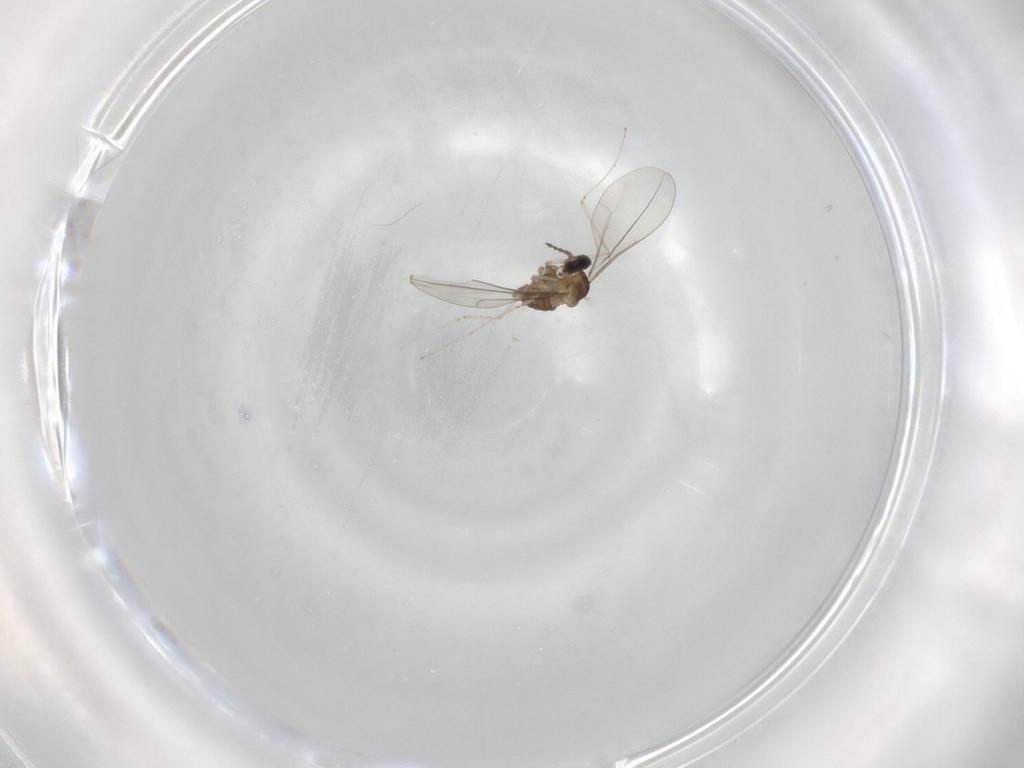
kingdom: Animalia
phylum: Arthropoda
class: Insecta
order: Diptera
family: Cecidomyiidae
